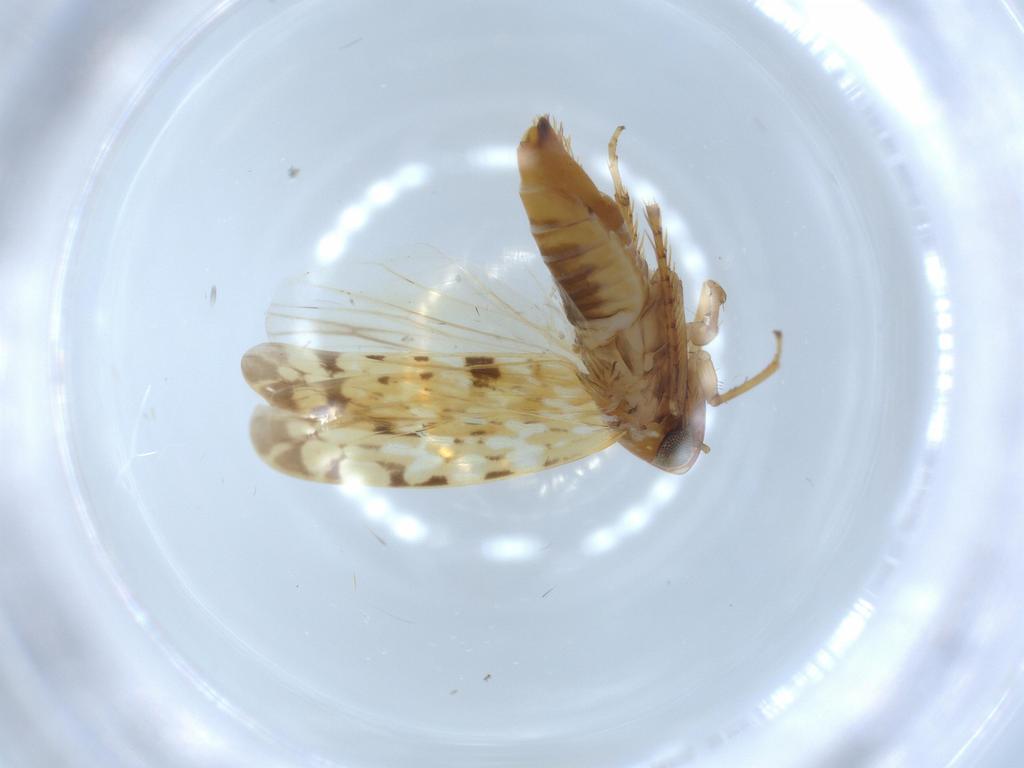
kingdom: Animalia
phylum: Arthropoda
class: Insecta
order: Hemiptera
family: Cicadellidae
